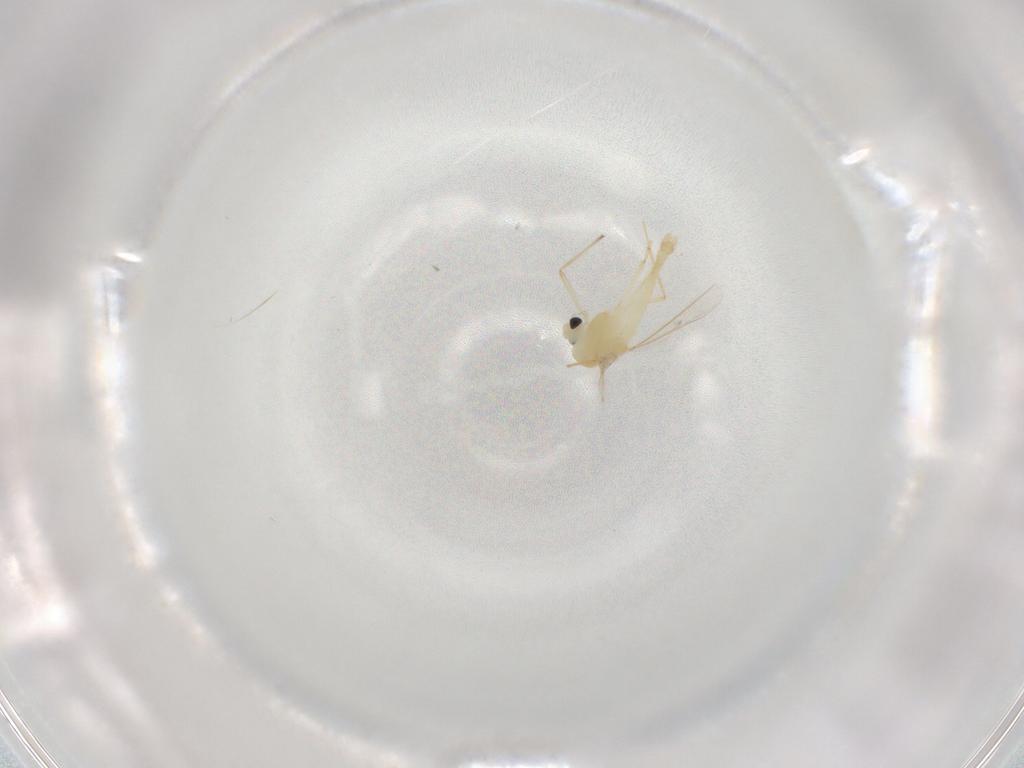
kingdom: Animalia
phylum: Arthropoda
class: Insecta
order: Diptera
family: Chironomidae
